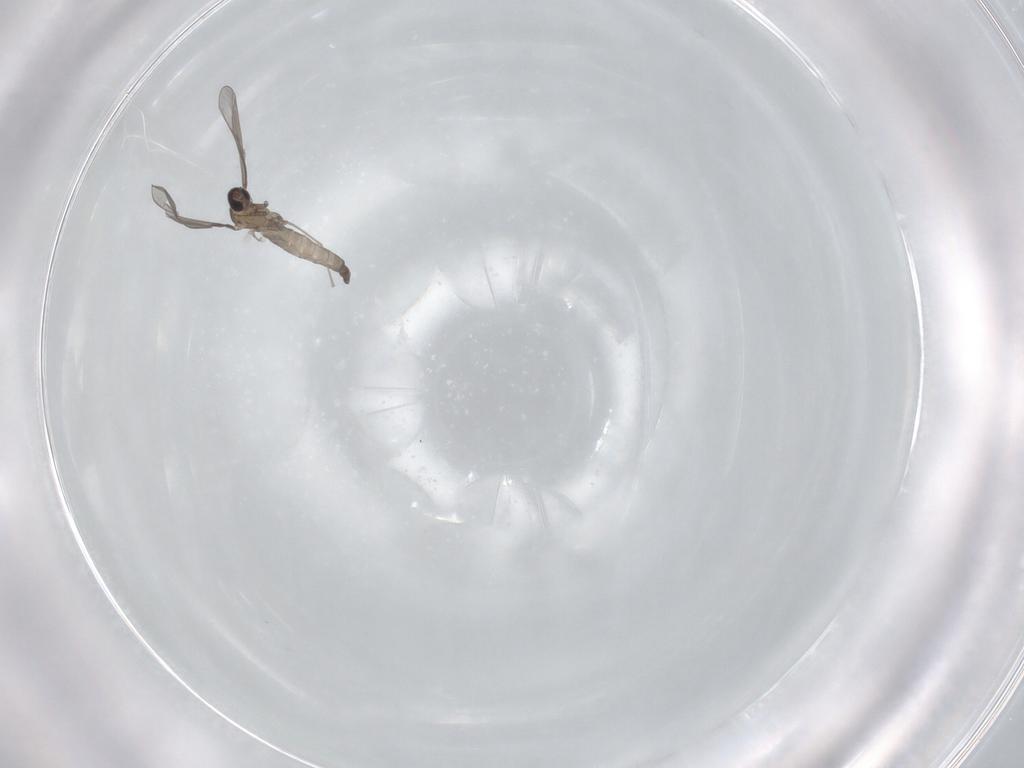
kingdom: Animalia
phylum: Arthropoda
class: Insecta
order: Diptera
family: Cecidomyiidae
